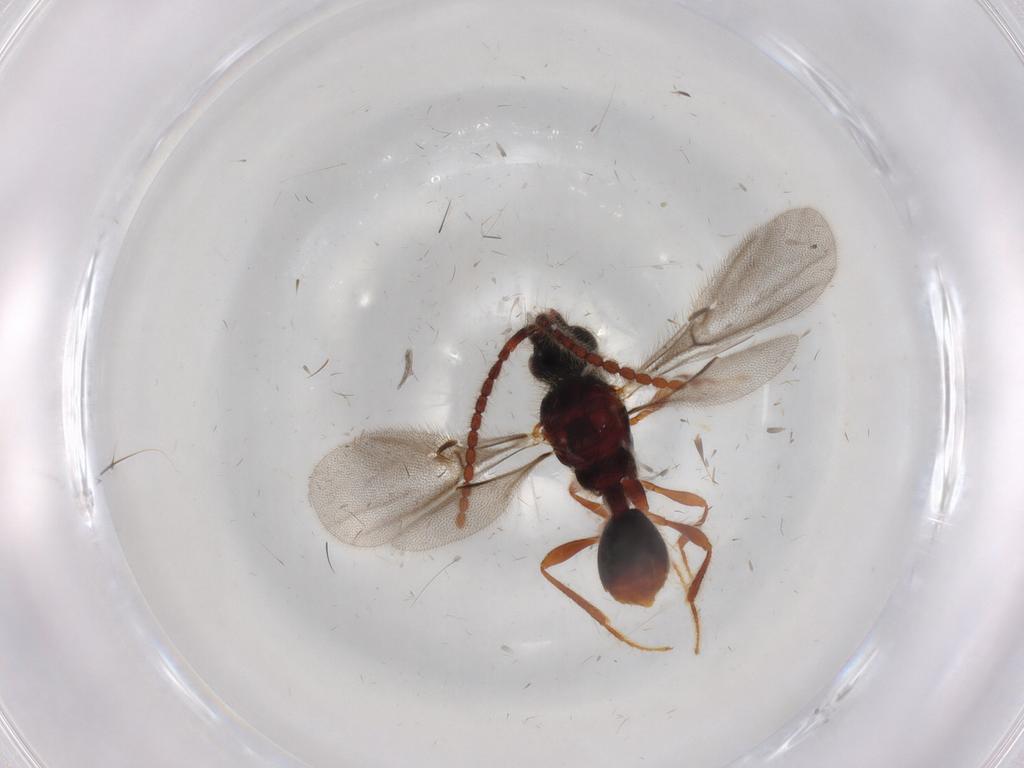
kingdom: Animalia
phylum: Arthropoda
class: Insecta
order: Hymenoptera
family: Diapriidae
